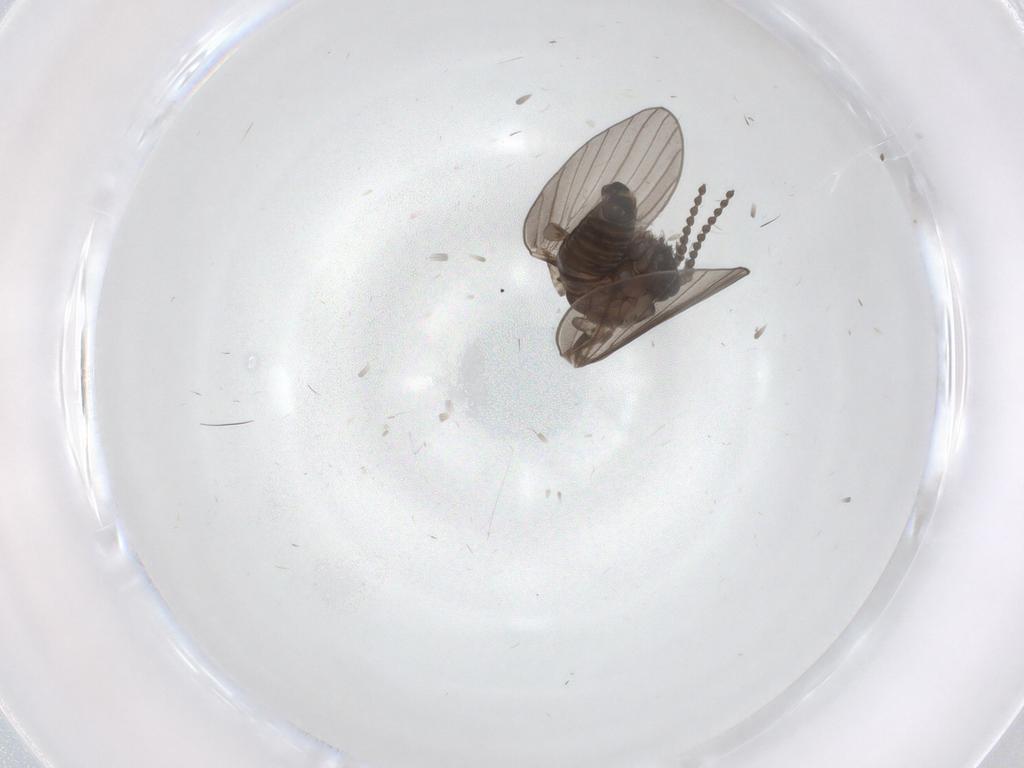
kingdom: Animalia
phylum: Arthropoda
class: Insecta
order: Diptera
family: Psychodidae
